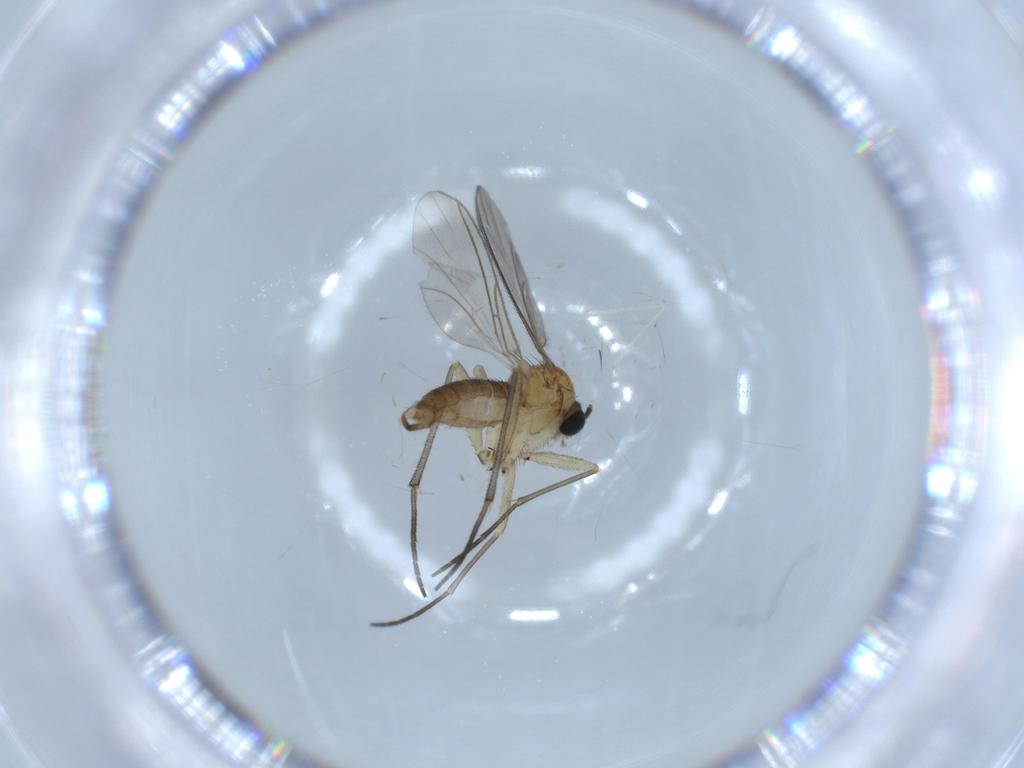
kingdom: Animalia
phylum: Arthropoda
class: Insecta
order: Diptera
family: Sciaridae
